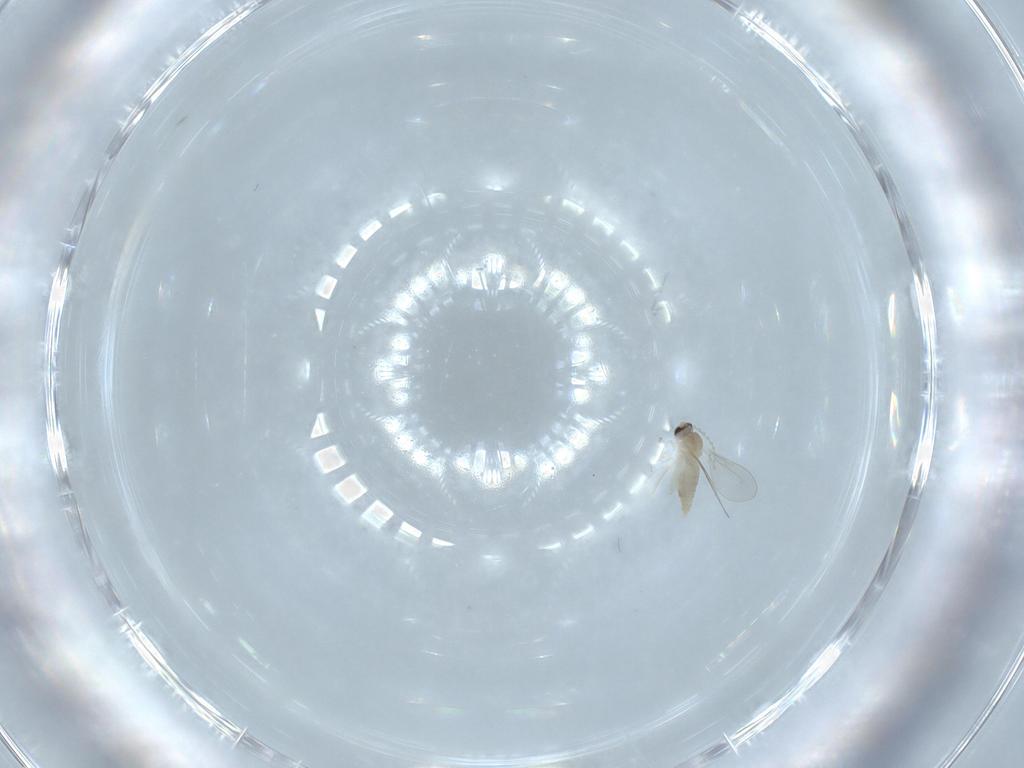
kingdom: Animalia
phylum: Arthropoda
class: Insecta
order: Diptera
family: Cecidomyiidae
